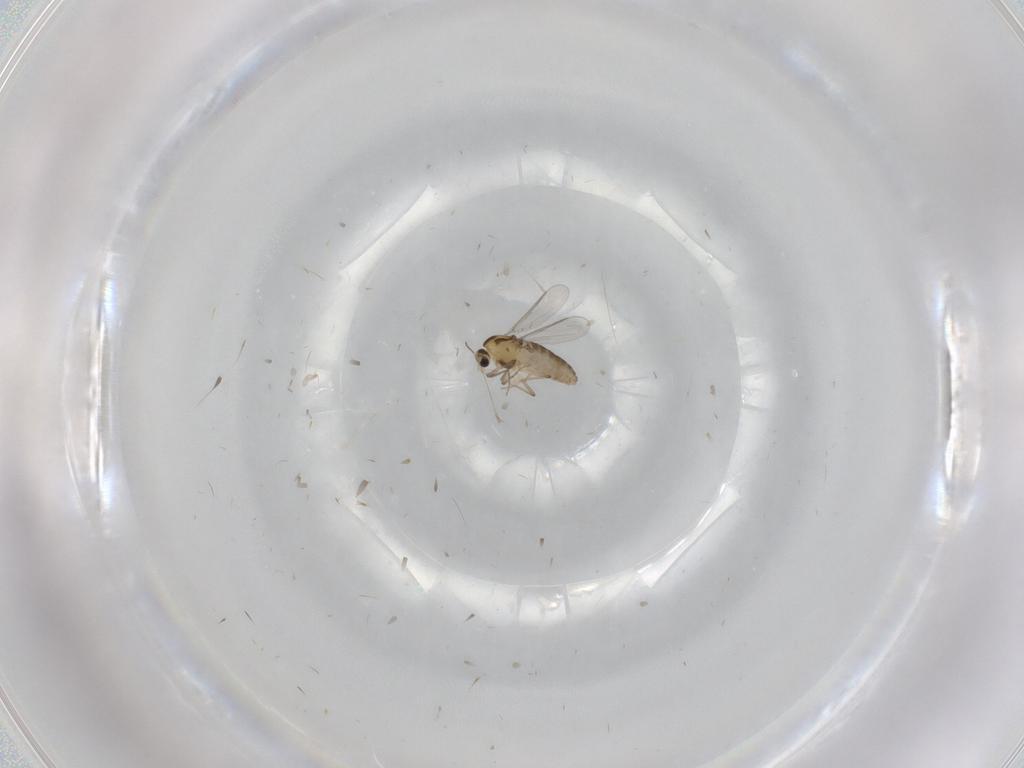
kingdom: Animalia
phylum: Arthropoda
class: Insecta
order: Diptera
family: Chironomidae
